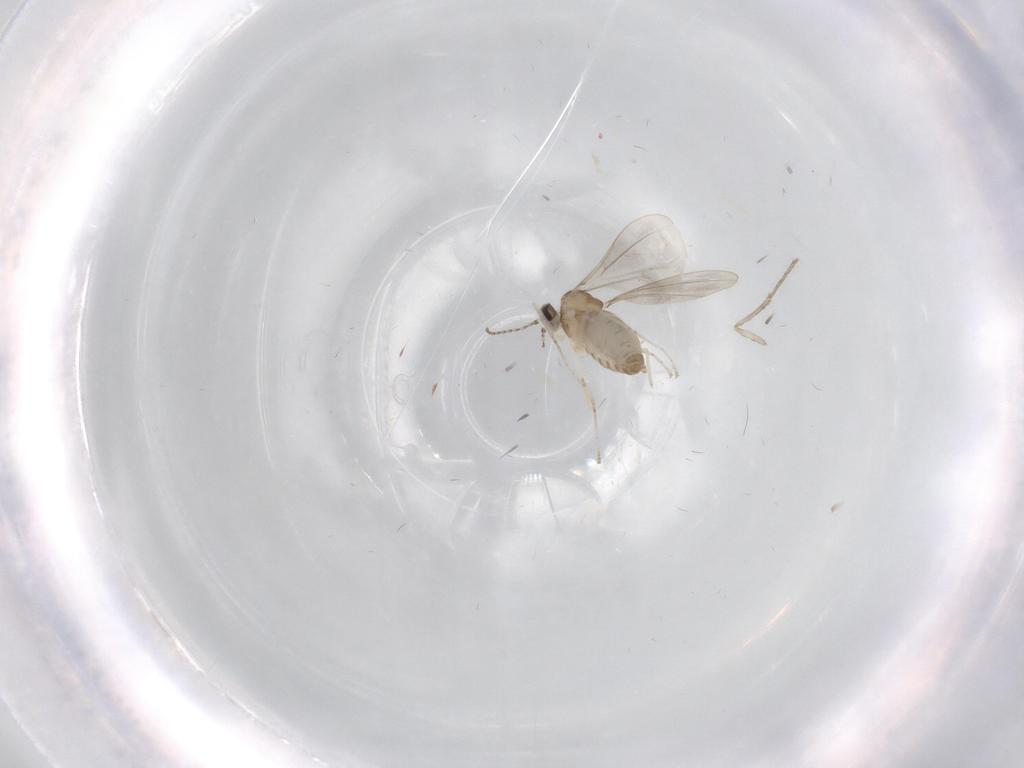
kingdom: Animalia
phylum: Arthropoda
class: Insecta
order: Diptera
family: Cecidomyiidae
